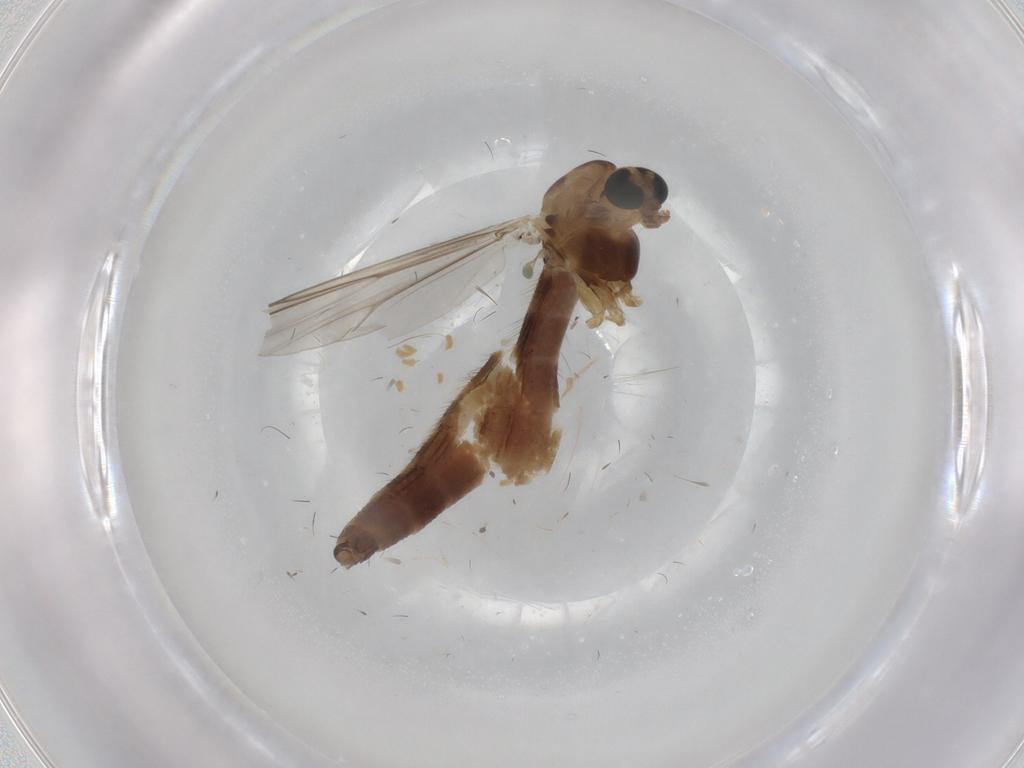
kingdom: Animalia
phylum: Arthropoda
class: Insecta
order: Diptera
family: Chironomidae
